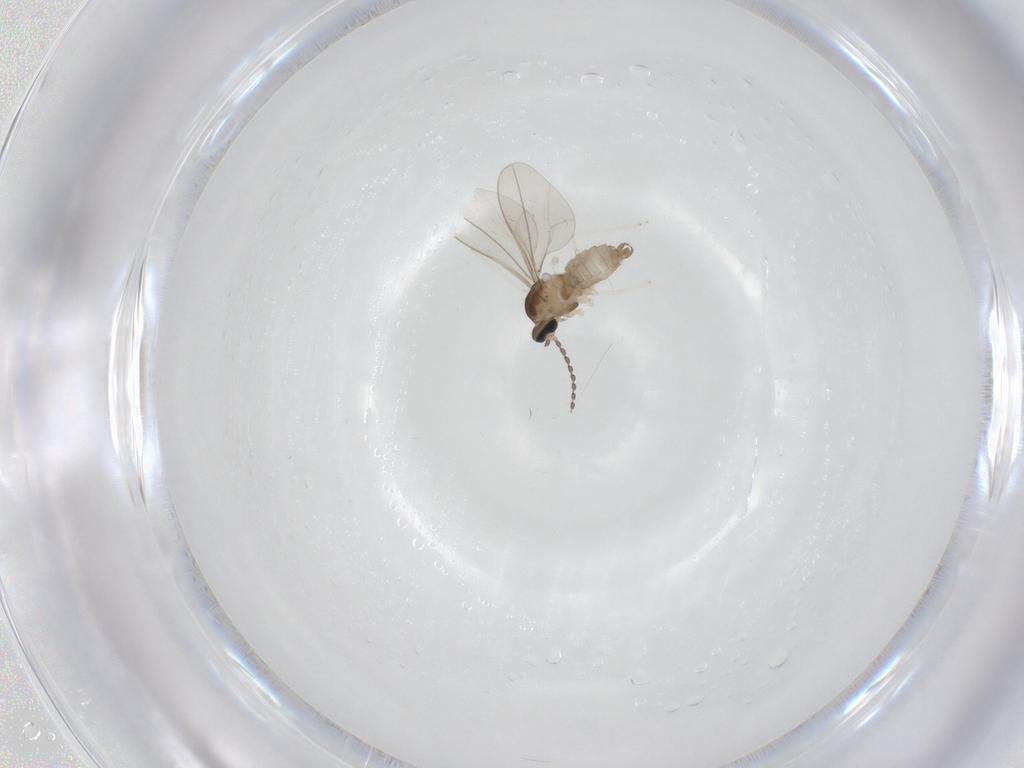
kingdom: Animalia
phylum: Arthropoda
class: Insecta
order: Diptera
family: Cecidomyiidae
